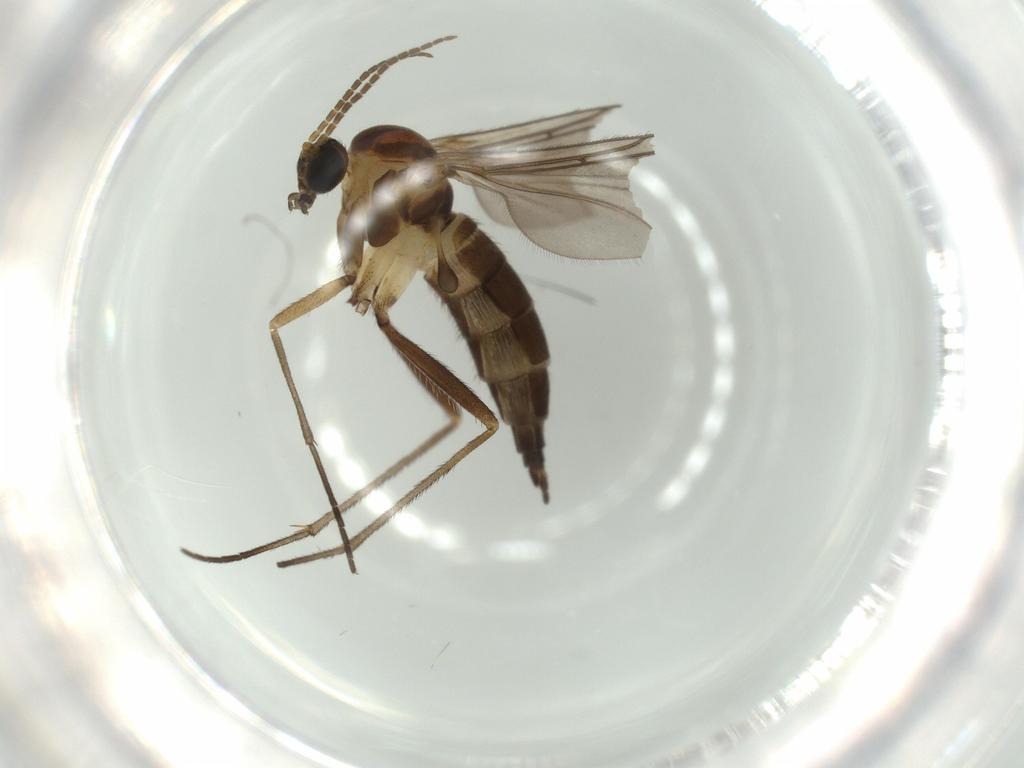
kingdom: Animalia
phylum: Arthropoda
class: Insecta
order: Diptera
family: Sciaridae
